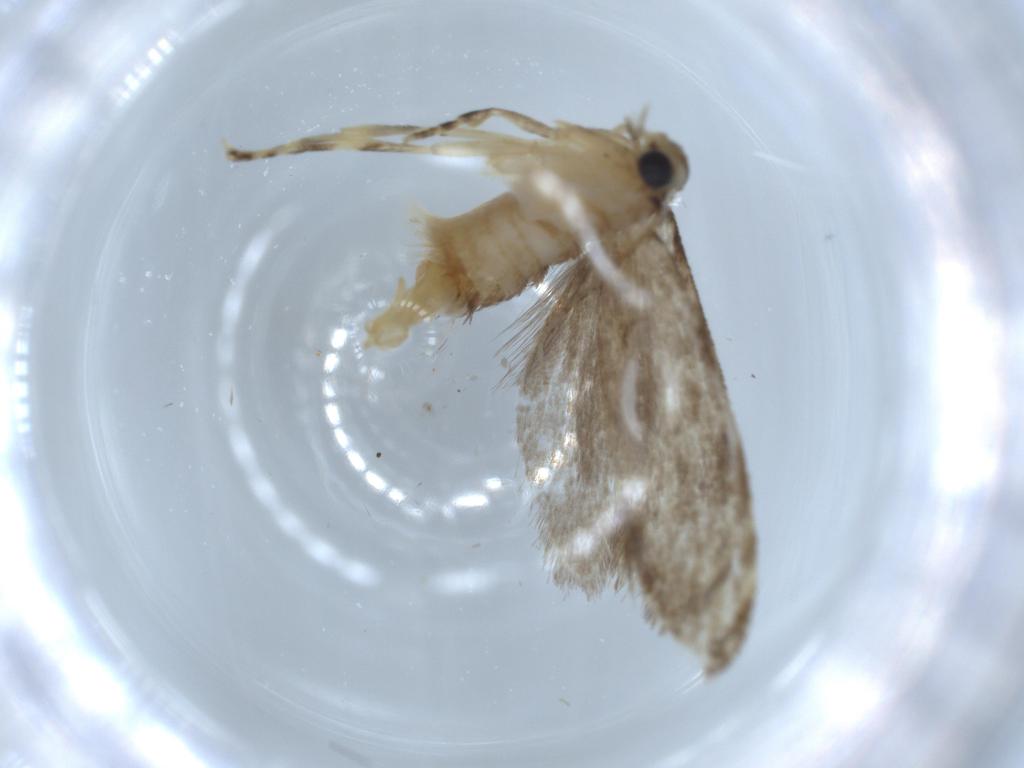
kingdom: Animalia
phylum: Arthropoda
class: Insecta
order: Lepidoptera
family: Tineidae
